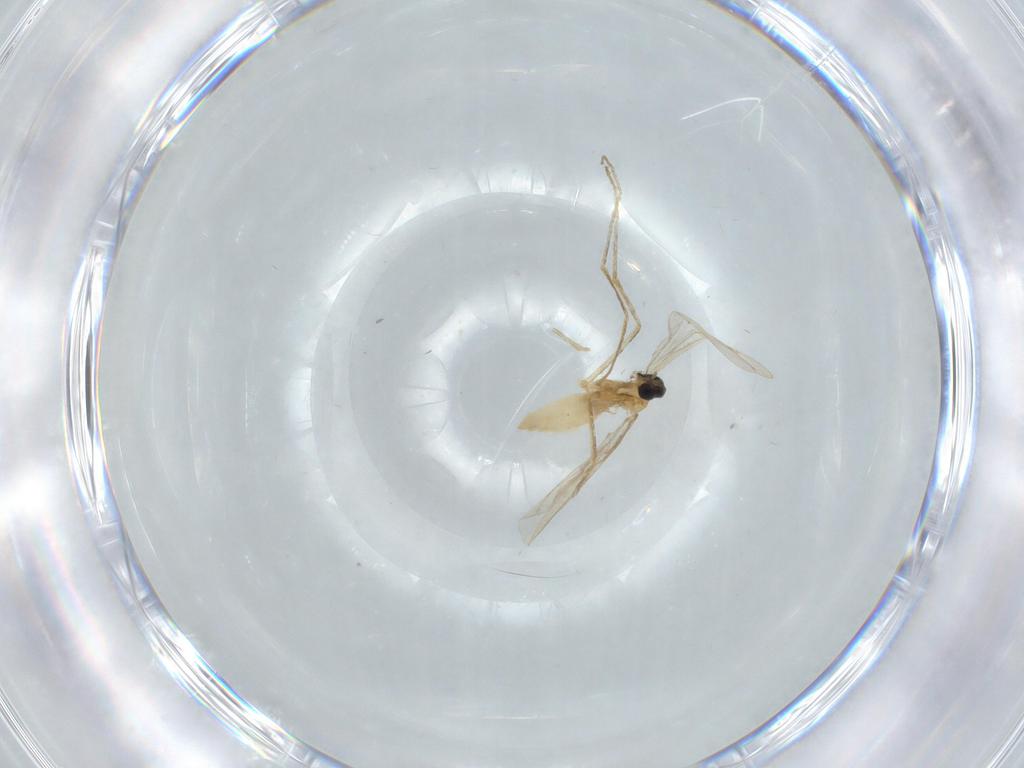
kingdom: Animalia
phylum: Arthropoda
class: Insecta
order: Diptera
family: Cecidomyiidae
